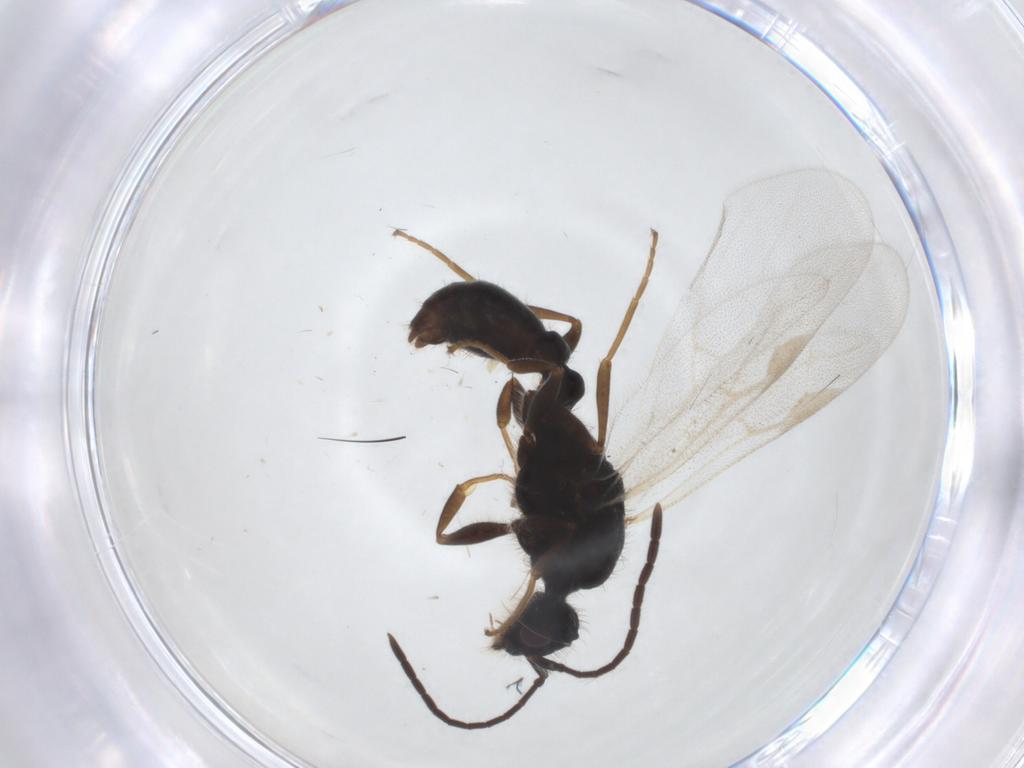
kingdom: Animalia
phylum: Arthropoda
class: Insecta
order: Hymenoptera
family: Formicidae
